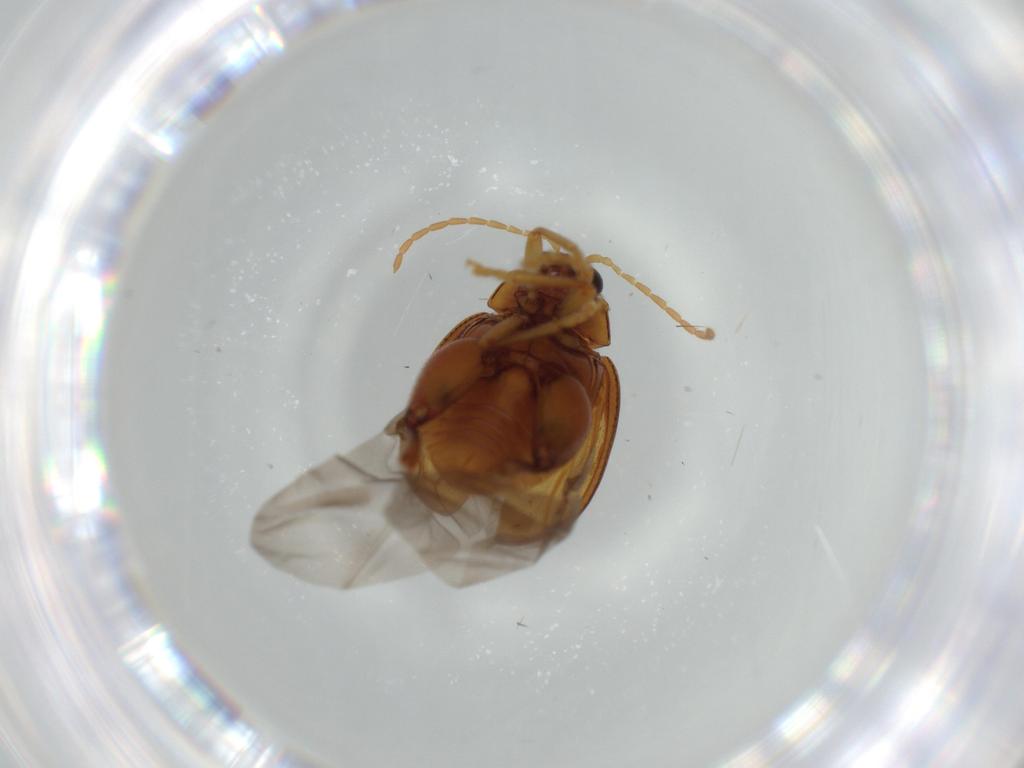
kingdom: Animalia
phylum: Arthropoda
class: Insecta
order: Coleoptera
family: Chrysomelidae
